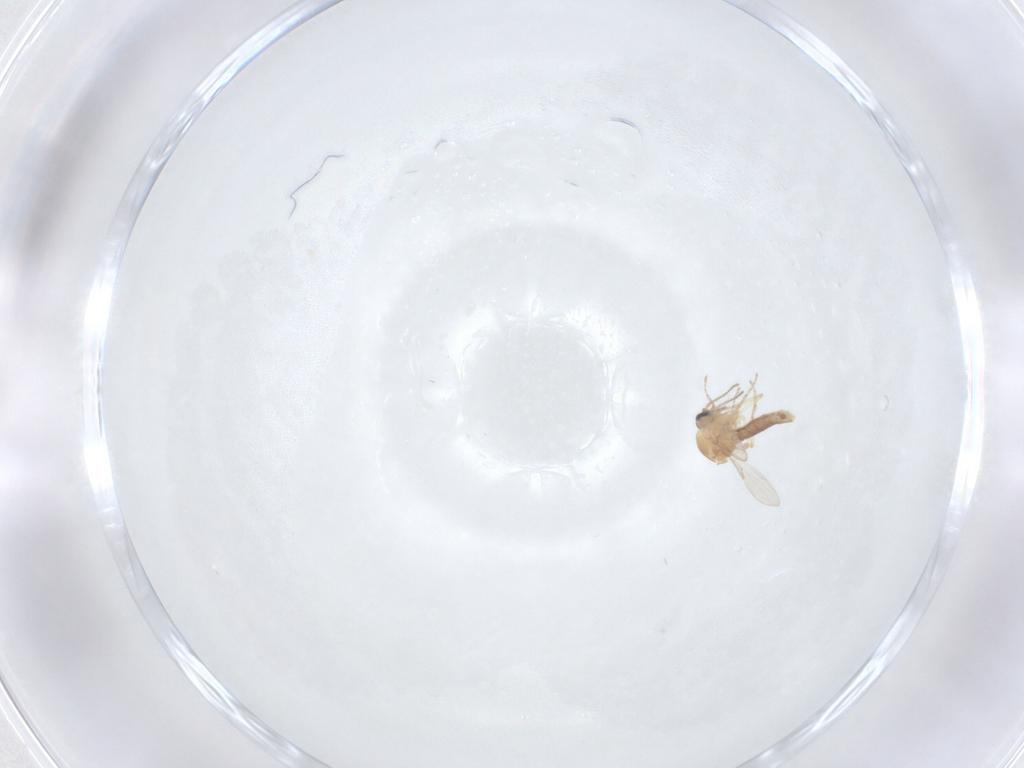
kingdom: Animalia
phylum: Arthropoda
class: Insecta
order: Diptera
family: Ceratopogonidae
